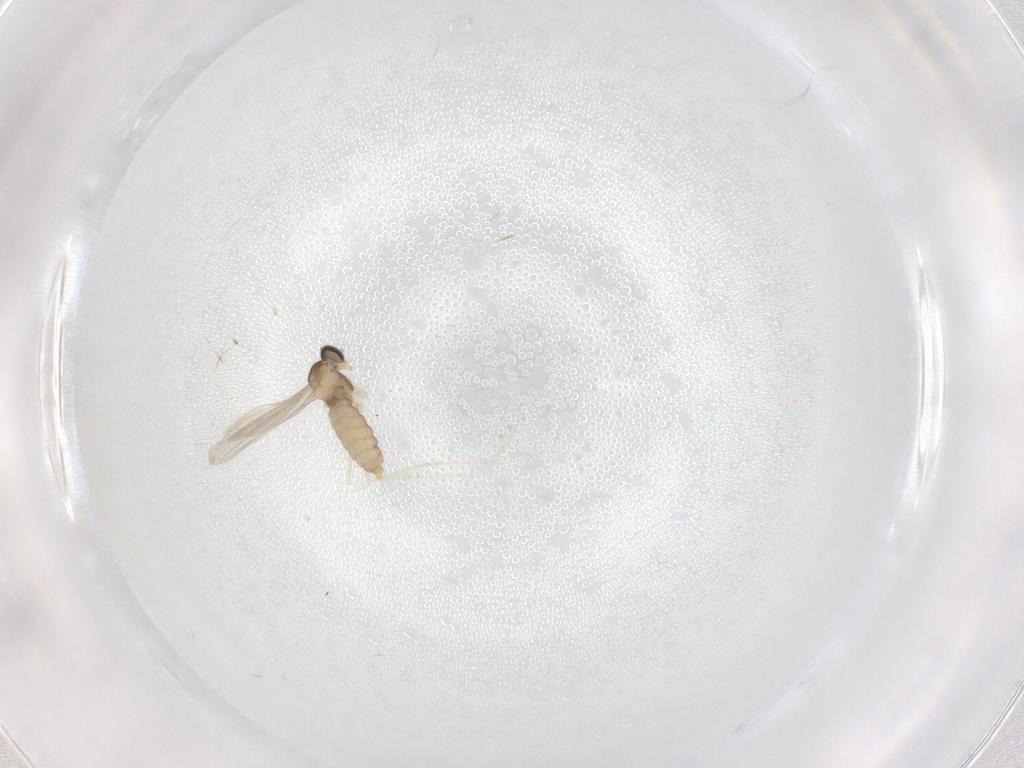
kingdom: Animalia
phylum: Arthropoda
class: Insecta
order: Diptera
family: Cecidomyiidae
